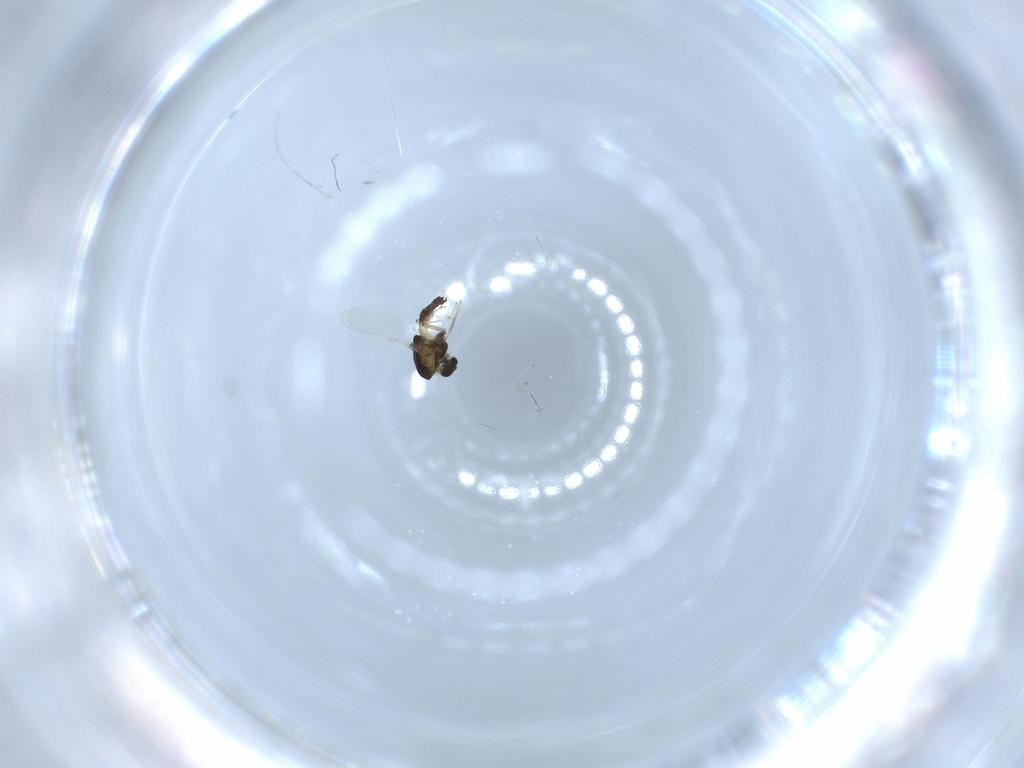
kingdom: Animalia
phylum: Arthropoda
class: Insecta
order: Diptera
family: Chironomidae
